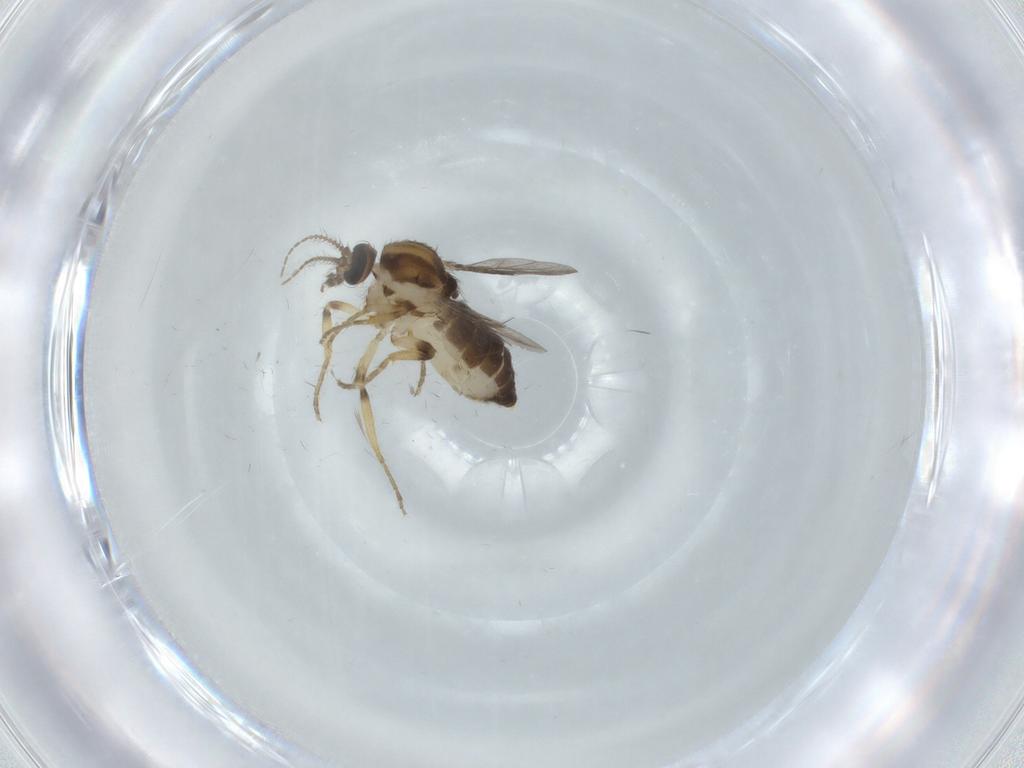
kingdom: Animalia
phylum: Arthropoda
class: Insecta
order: Diptera
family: Ceratopogonidae
